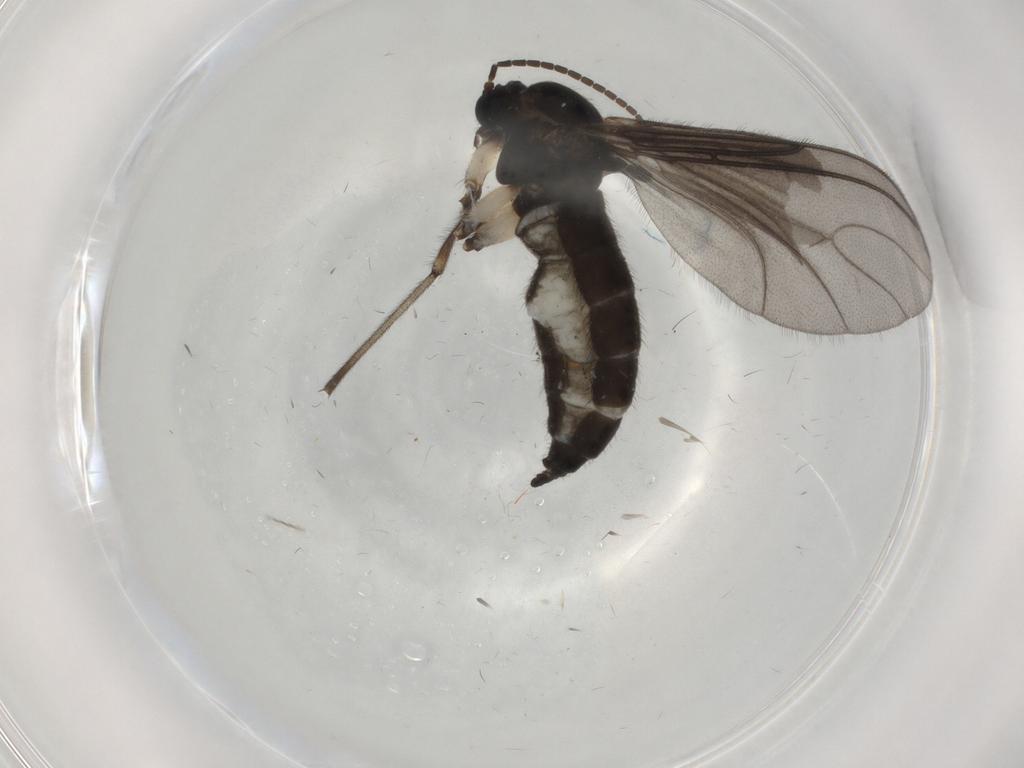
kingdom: Animalia
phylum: Arthropoda
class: Insecta
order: Diptera
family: Sciaridae
